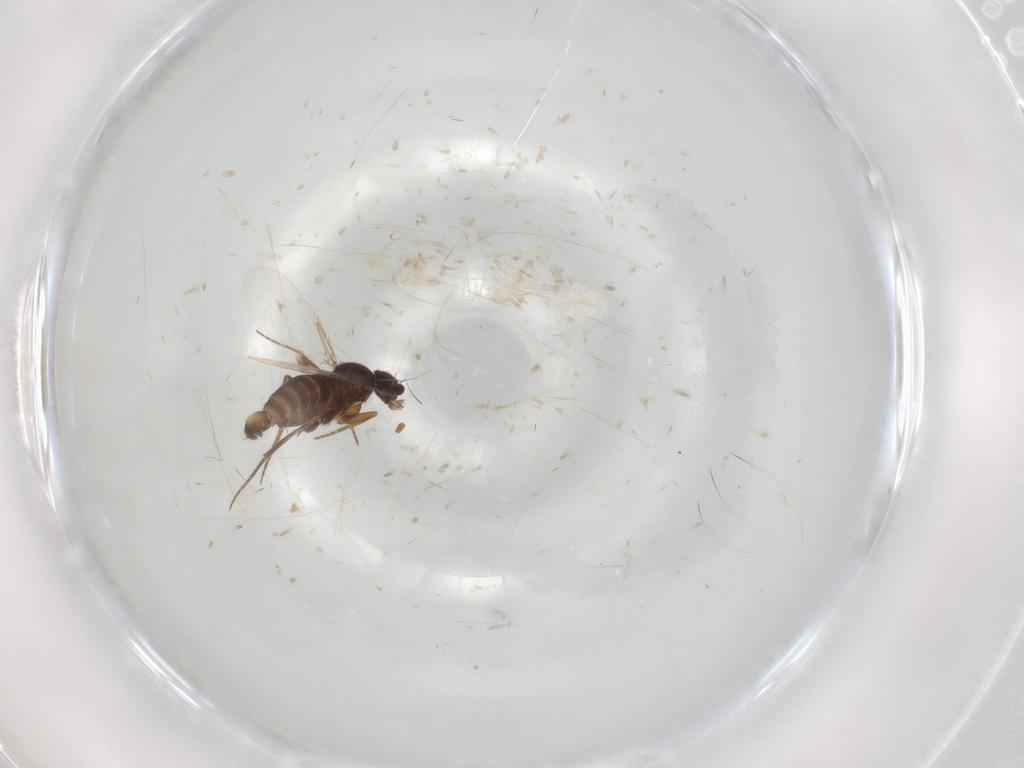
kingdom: Animalia
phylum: Arthropoda
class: Insecta
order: Diptera
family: Phoridae
